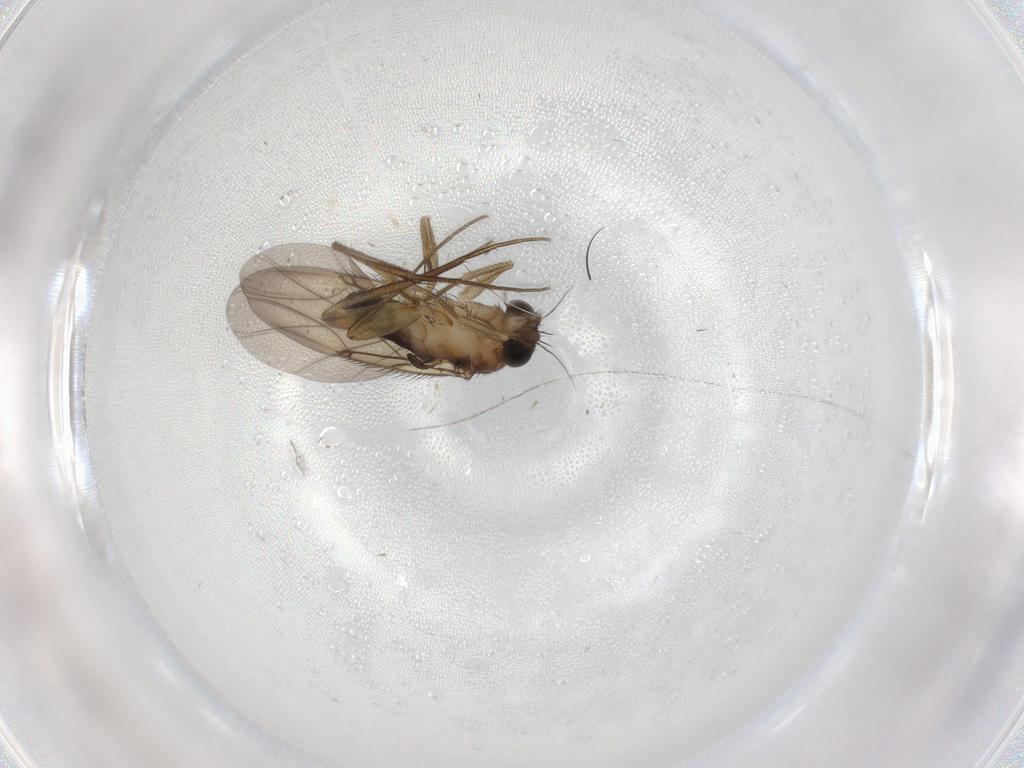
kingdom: Animalia
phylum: Arthropoda
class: Insecta
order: Diptera
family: Phoridae
